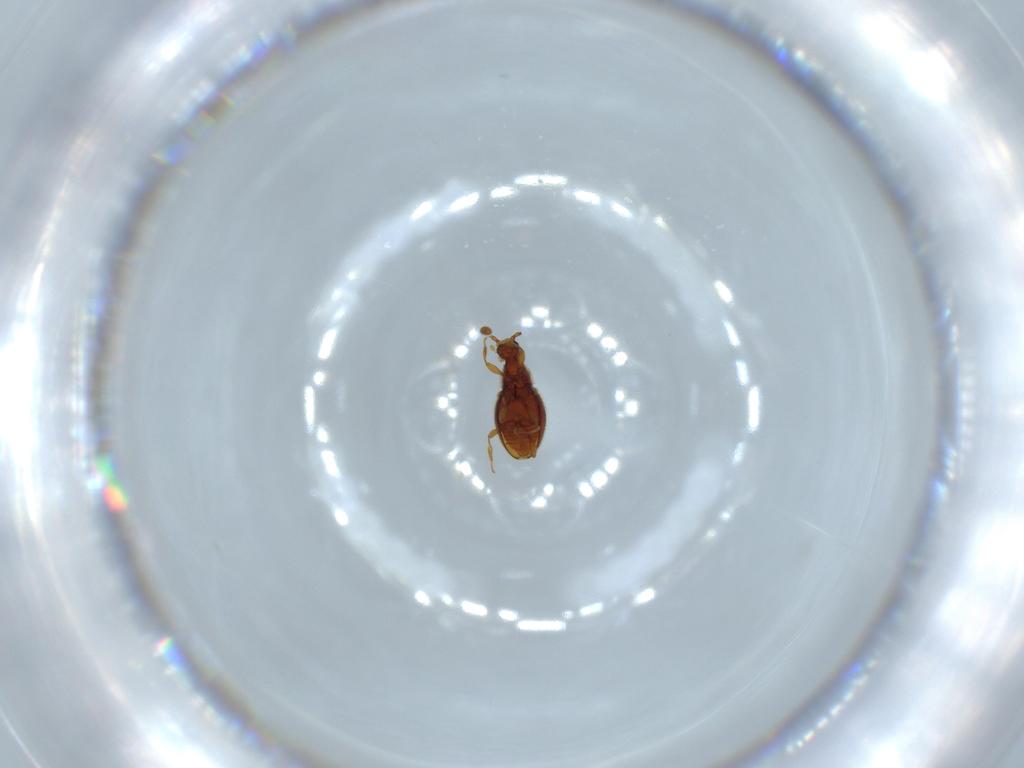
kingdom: Animalia
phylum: Arthropoda
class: Insecta
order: Coleoptera
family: Staphylinidae
